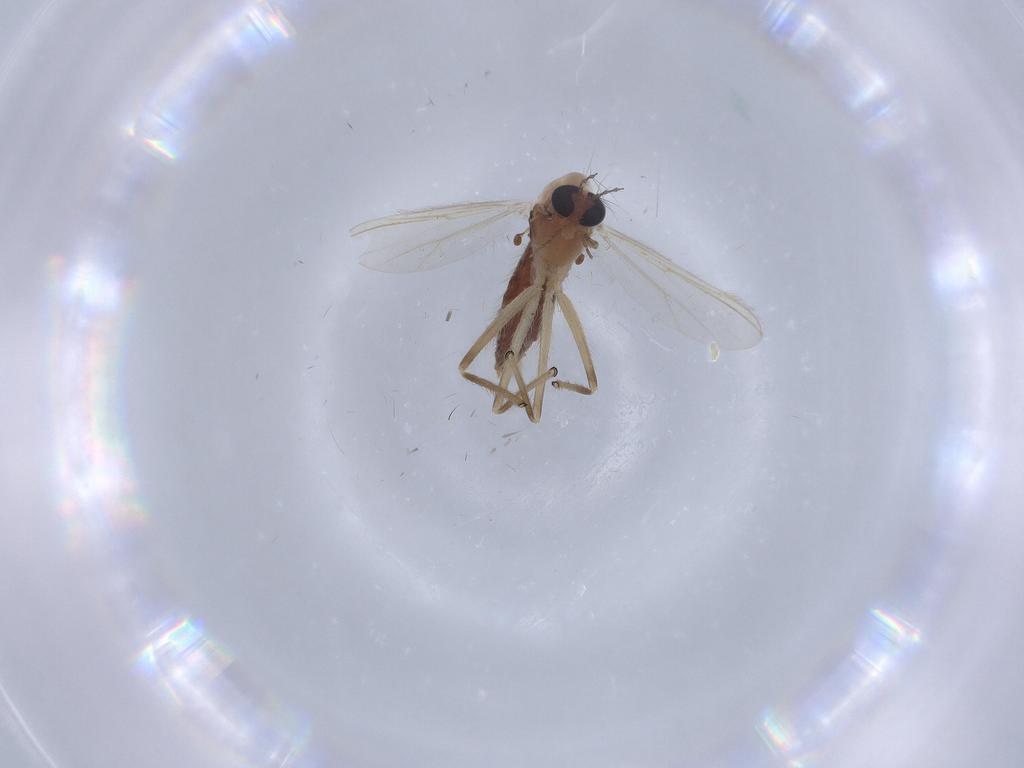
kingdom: Animalia
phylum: Arthropoda
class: Insecta
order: Diptera
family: Chironomidae
